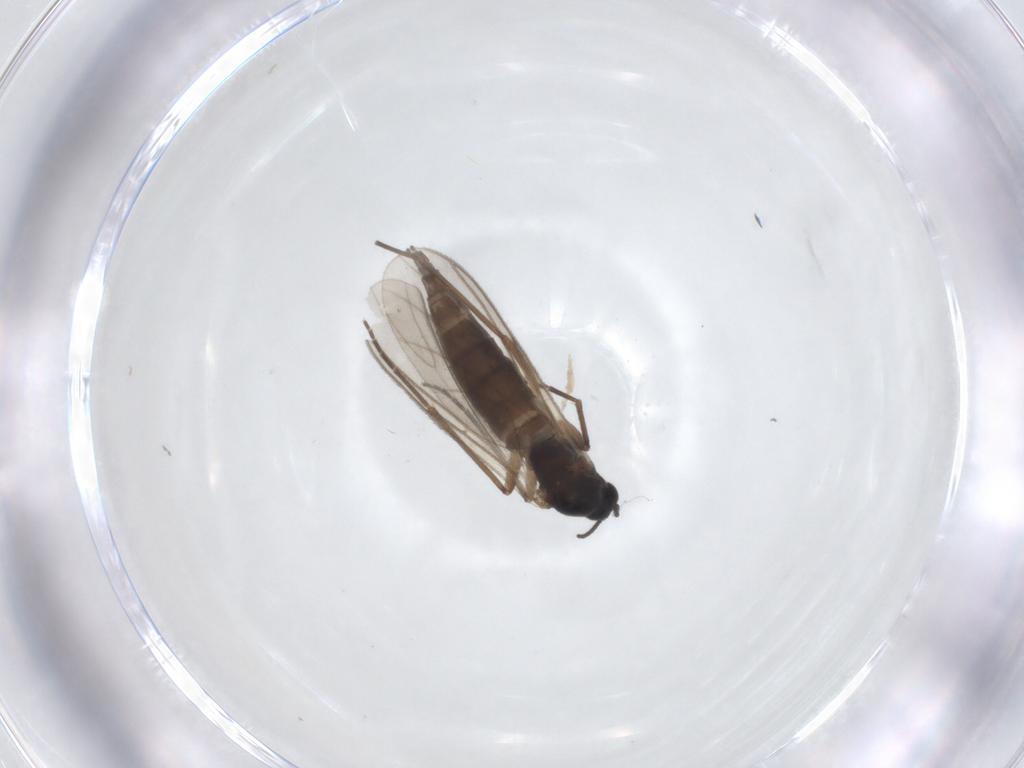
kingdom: Animalia
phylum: Arthropoda
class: Insecta
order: Diptera
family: Sciaridae
